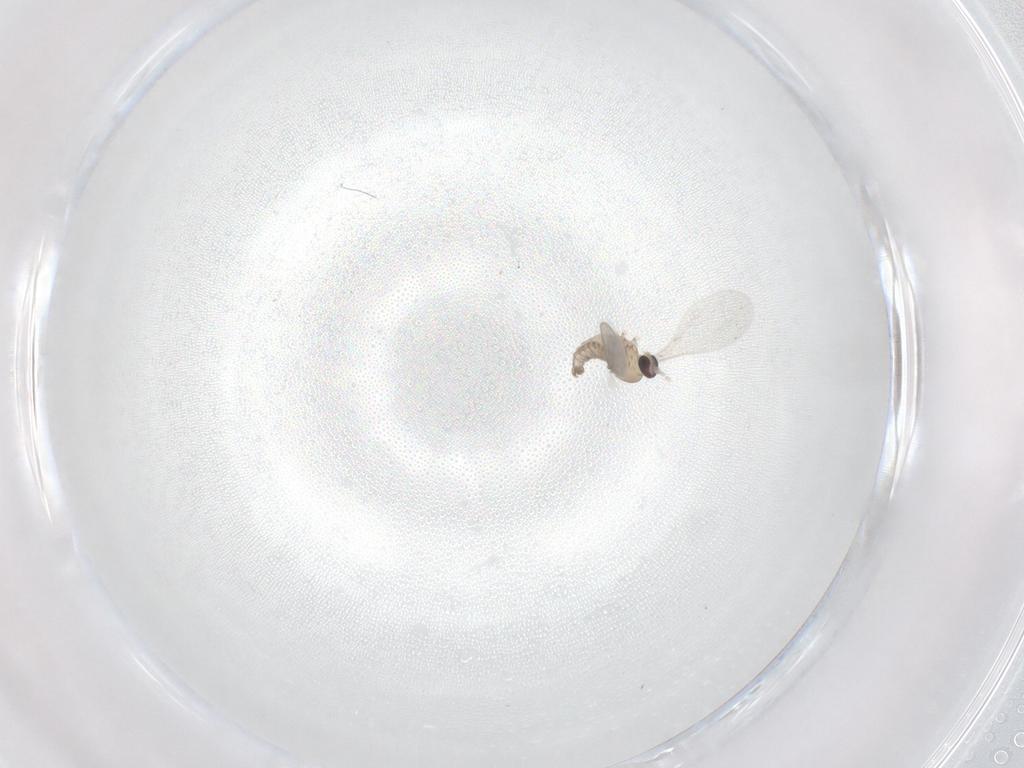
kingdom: Animalia
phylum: Arthropoda
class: Insecta
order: Diptera
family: Cecidomyiidae
